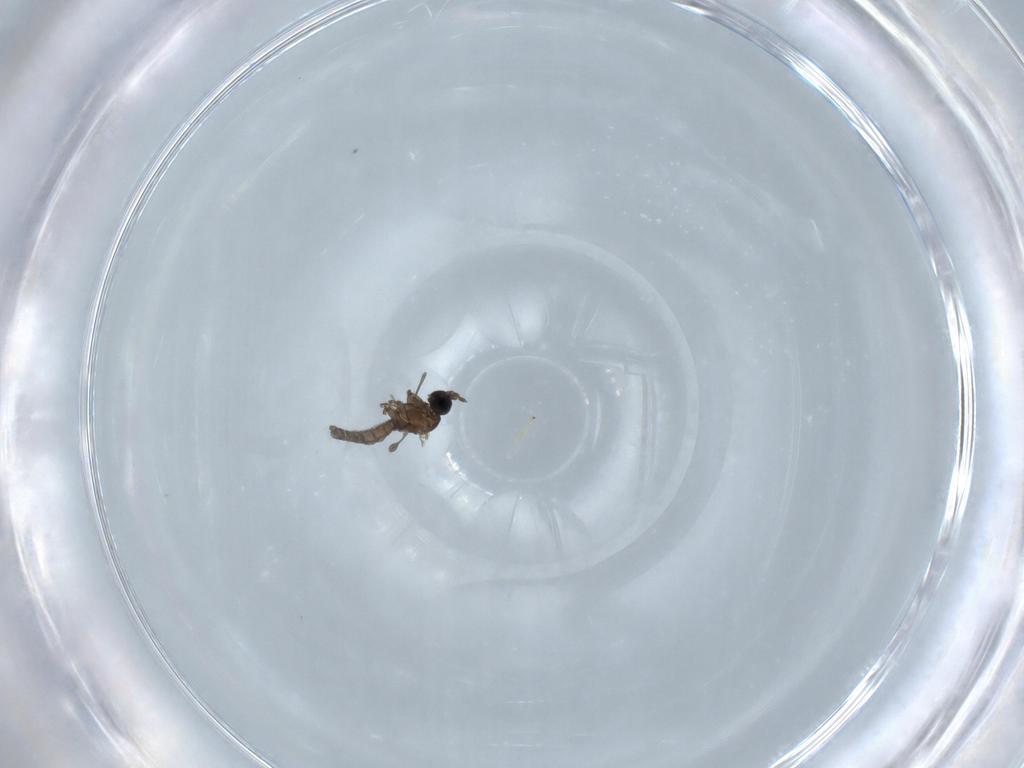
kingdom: Animalia
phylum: Arthropoda
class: Insecta
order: Diptera
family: Sciaridae
